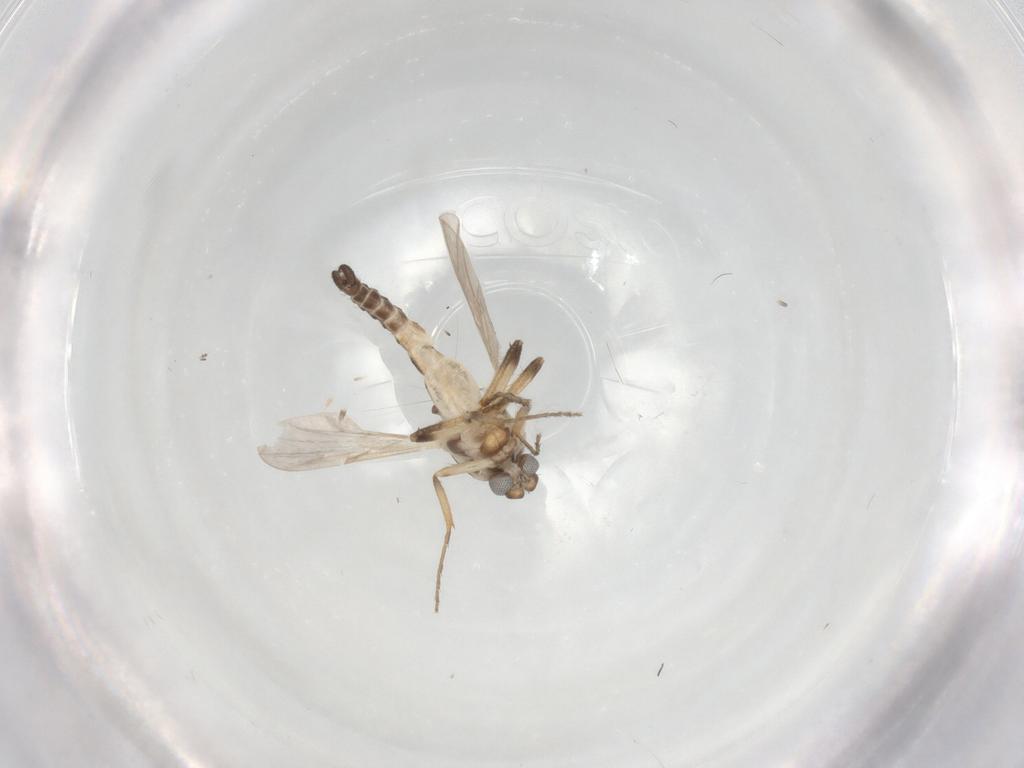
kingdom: Animalia
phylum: Arthropoda
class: Insecta
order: Diptera
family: Ceratopogonidae
